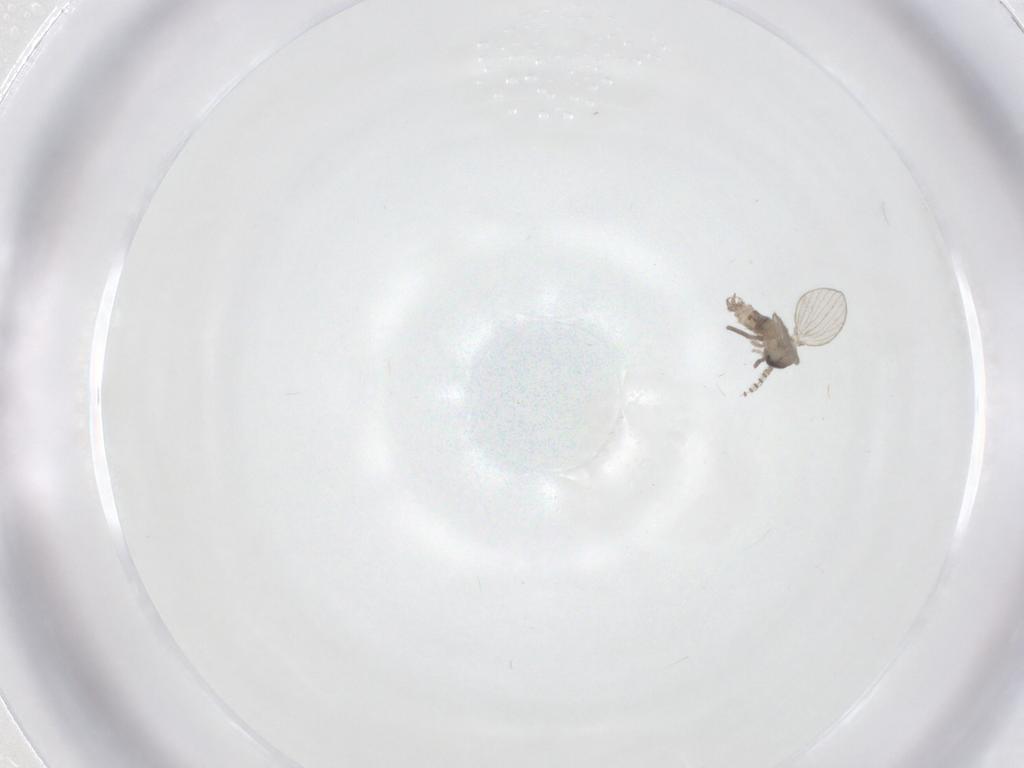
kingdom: Animalia
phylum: Arthropoda
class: Insecta
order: Diptera
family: Psychodidae
